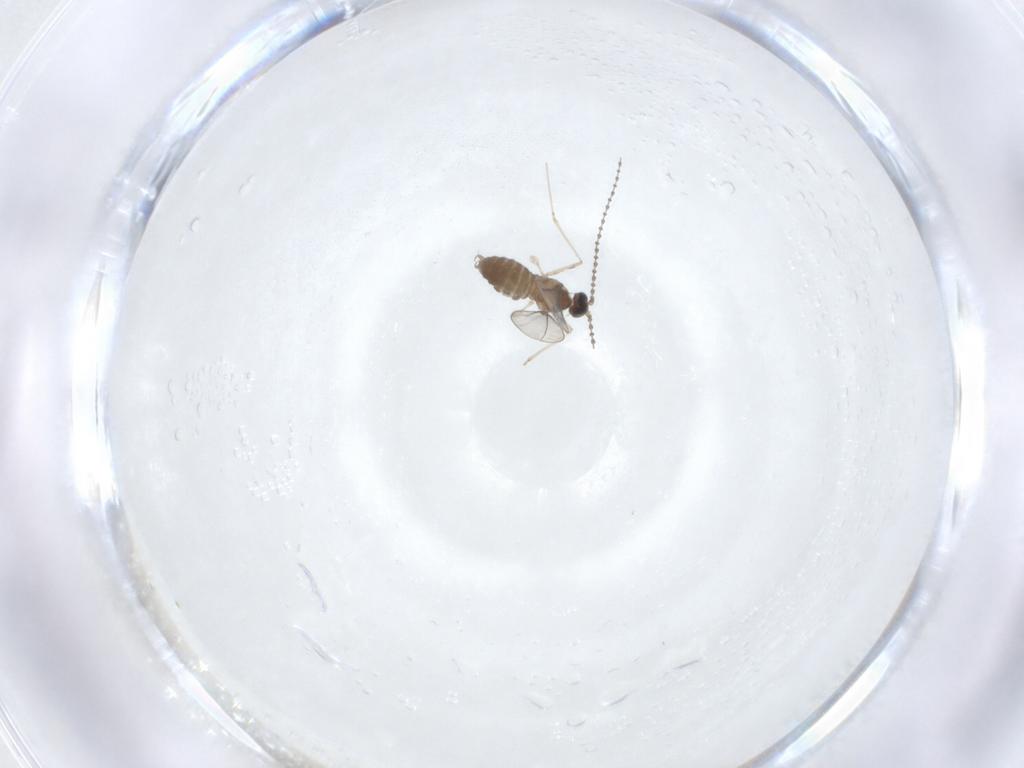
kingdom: Animalia
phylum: Arthropoda
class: Insecta
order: Diptera
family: Cecidomyiidae
